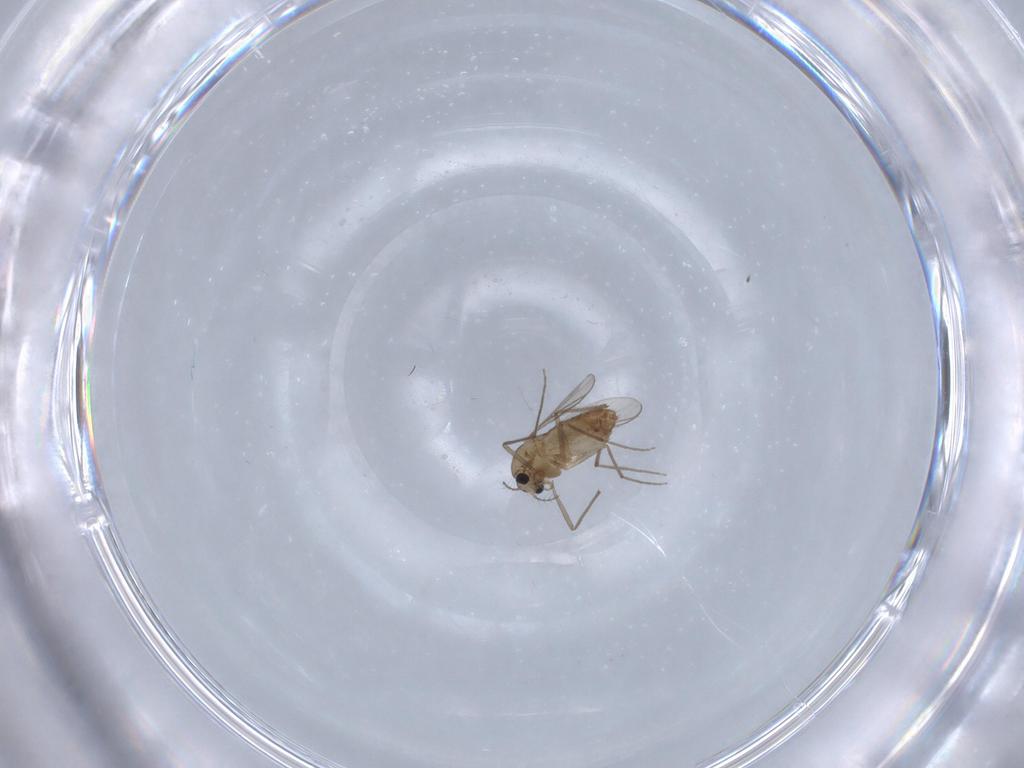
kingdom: Animalia
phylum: Arthropoda
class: Insecta
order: Diptera
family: Chironomidae
